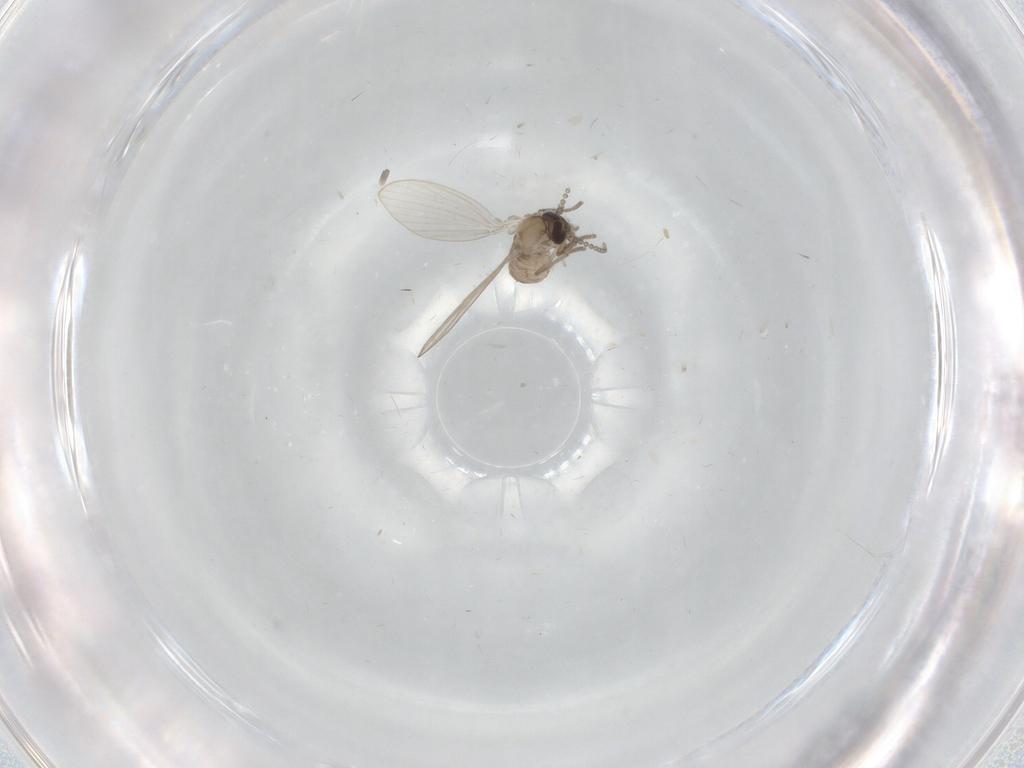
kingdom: Animalia
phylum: Arthropoda
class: Insecta
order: Diptera
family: Psychodidae
